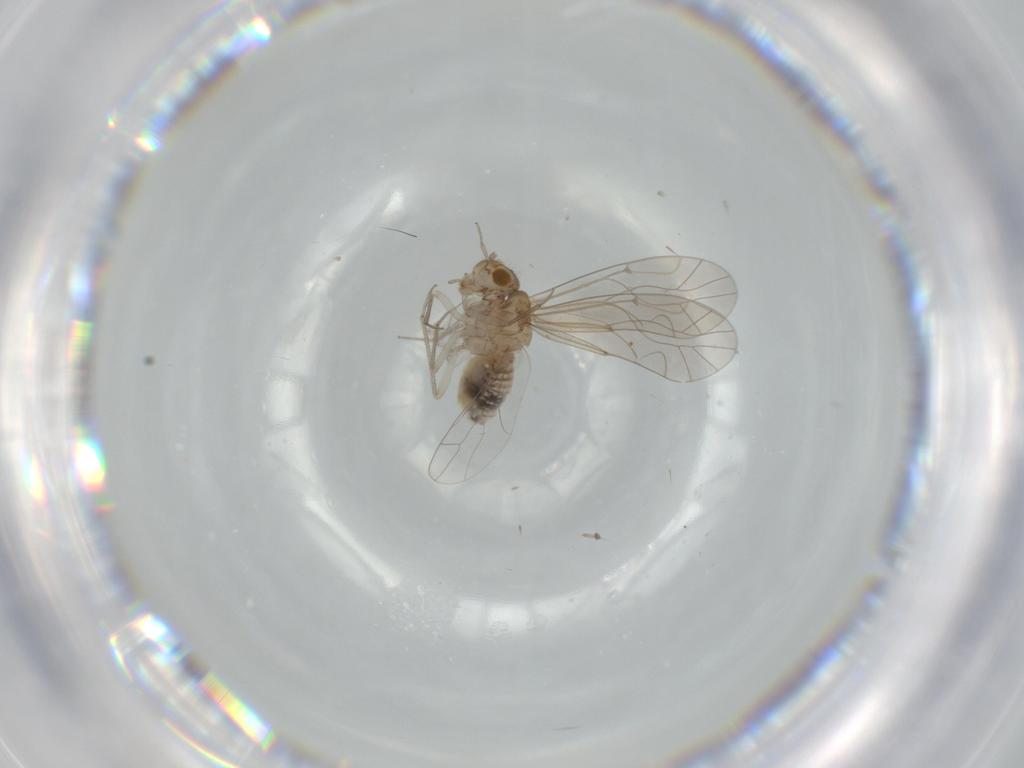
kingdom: Animalia
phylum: Arthropoda
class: Insecta
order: Psocodea
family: Lachesillidae
